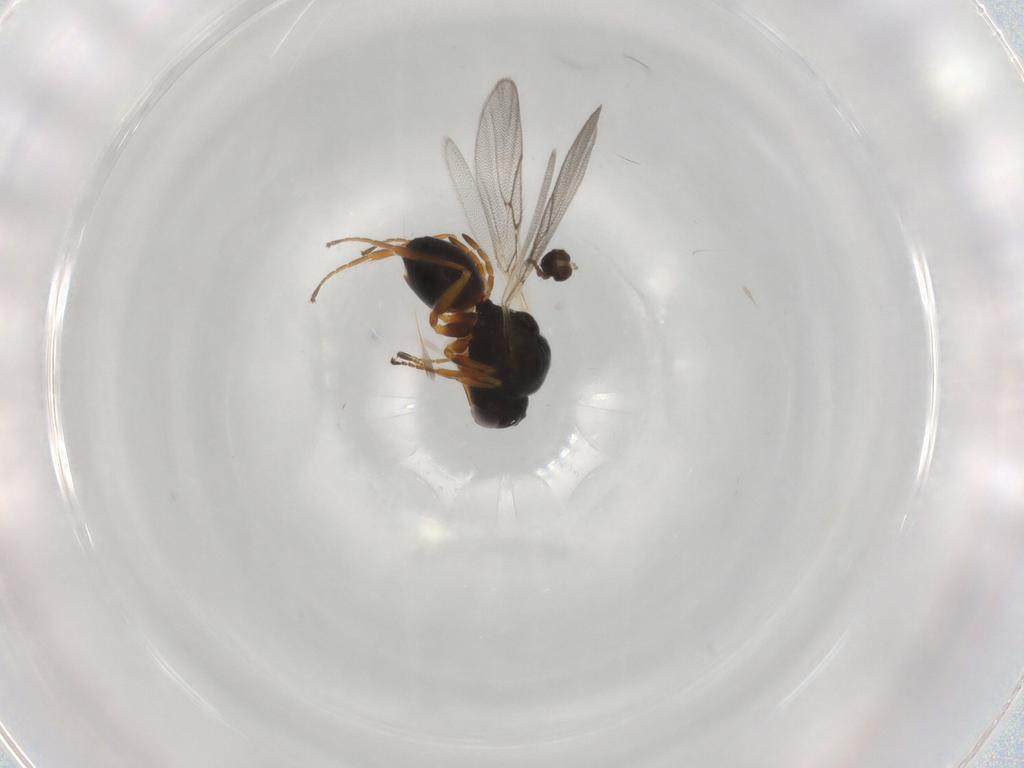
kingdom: Animalia
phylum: Arthropoda
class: Insecta
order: Hymenoptera
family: Figitidae
